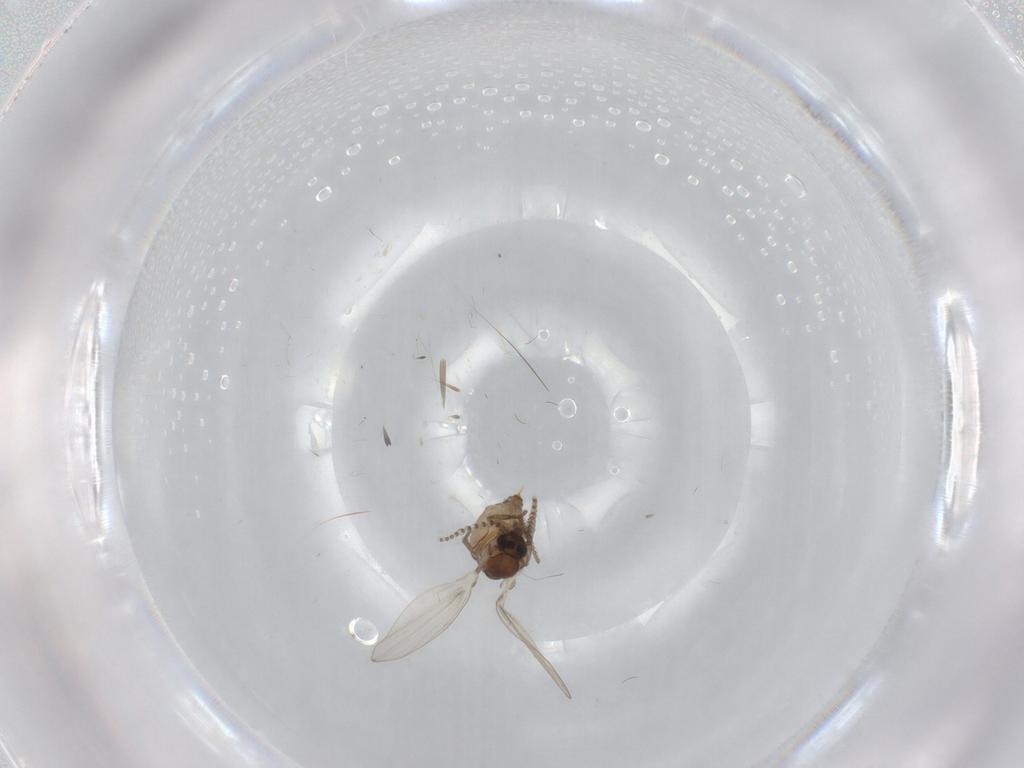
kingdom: Animalia
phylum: Arthropoda
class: Insecta
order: Diptera
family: Psychodidae
